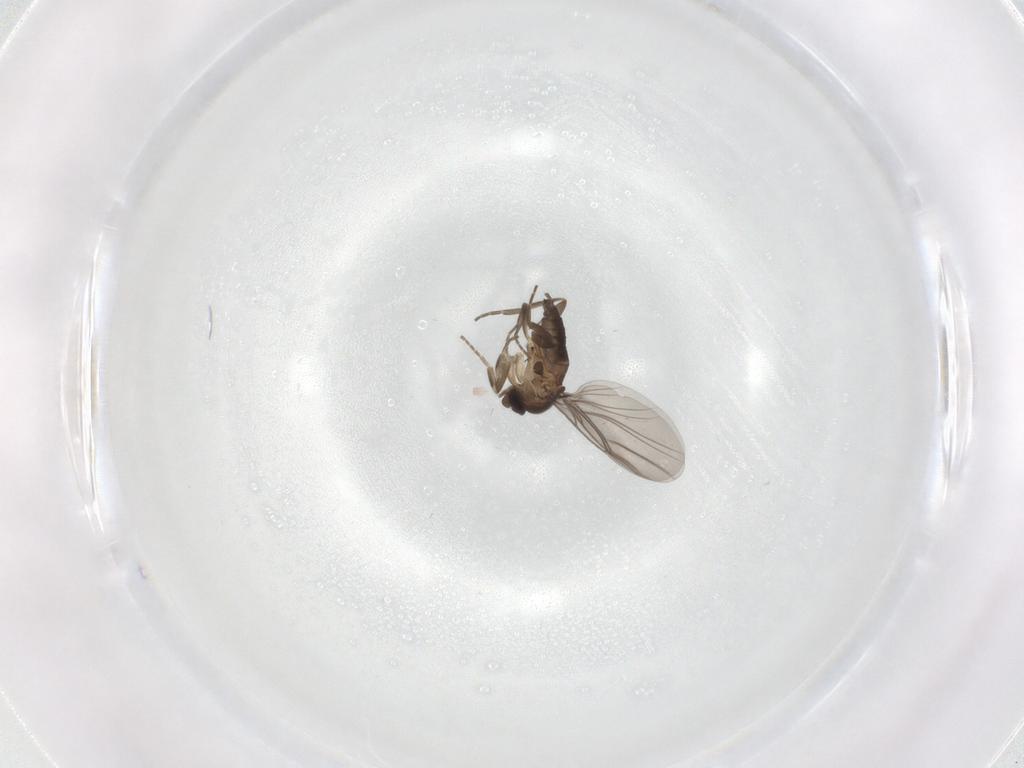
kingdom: Animalia
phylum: Arthropoda
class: Insecta
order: Diptera
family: Phoridae
